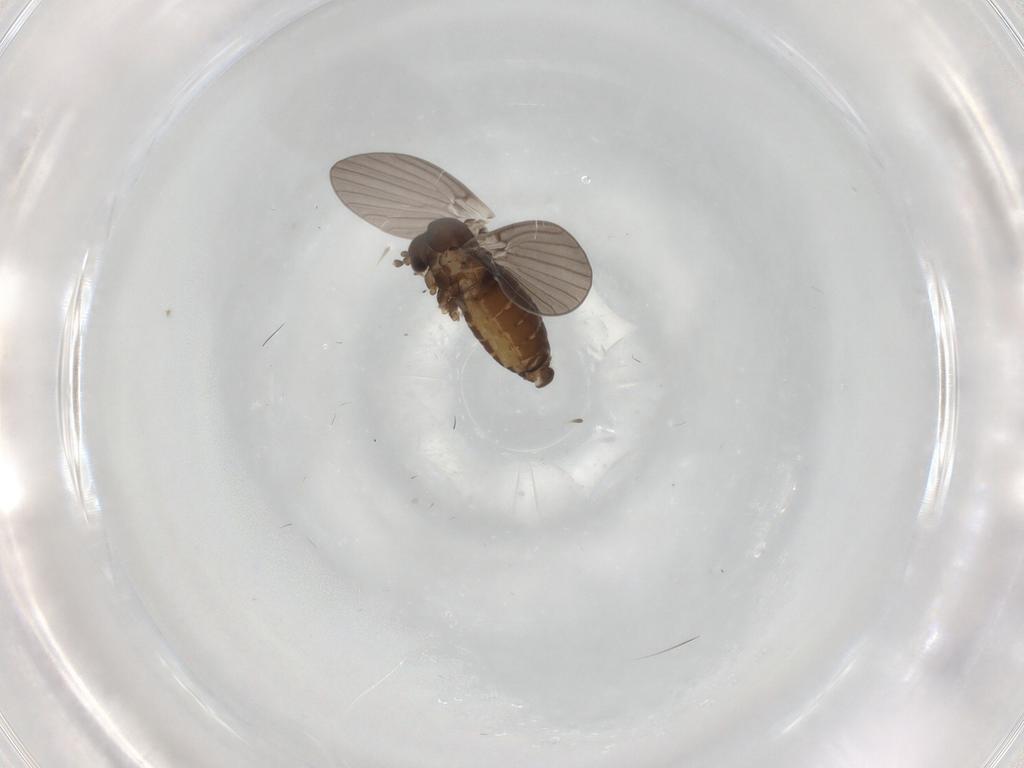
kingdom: Animalia
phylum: Arthropoda
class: Insecta
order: Diptera
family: Psychodidae
